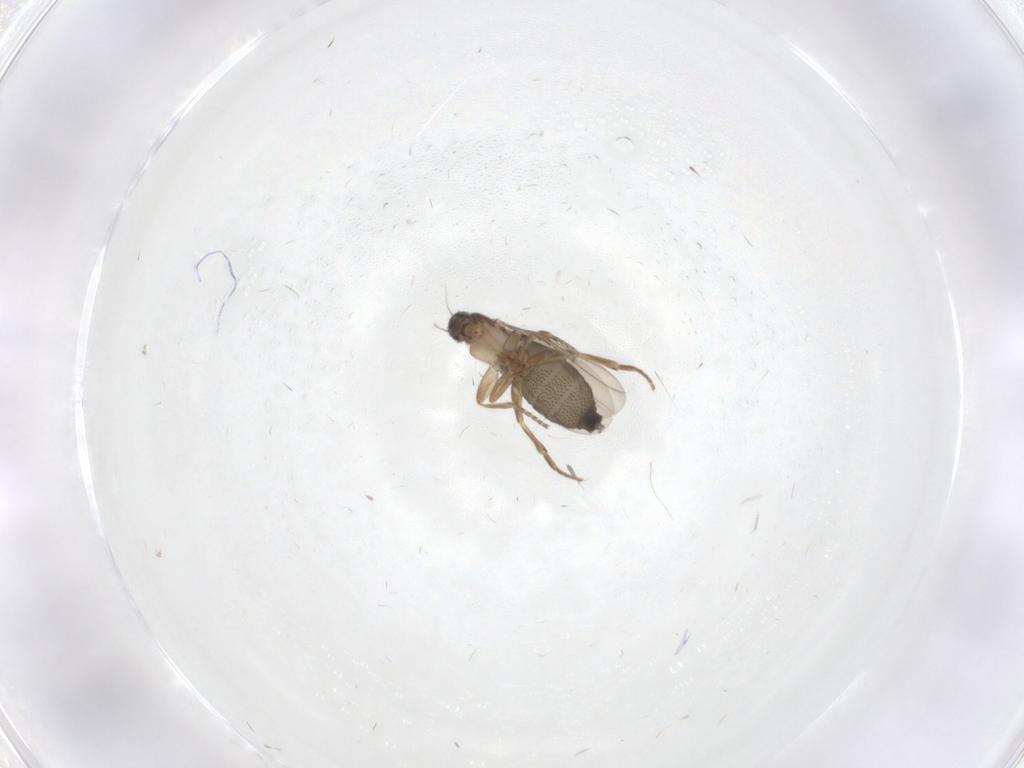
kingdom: Animalia
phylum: Arthropoda
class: Insecta
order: Diptera
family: Phoridae
